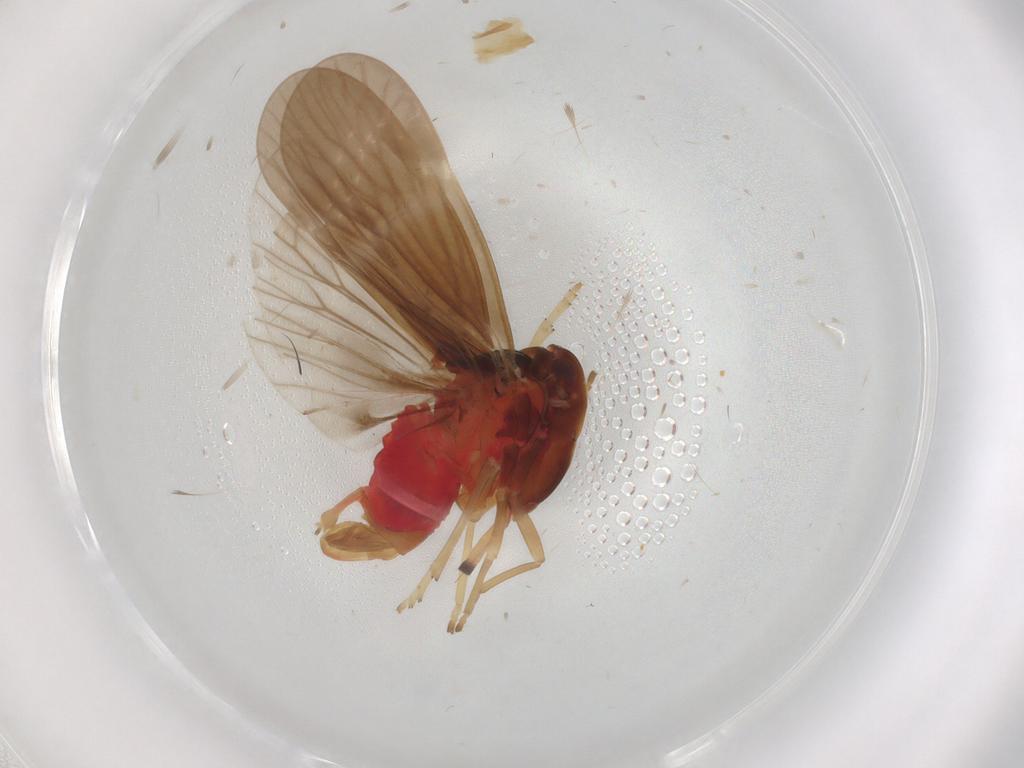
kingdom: Animalia
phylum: Arthropoda
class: Insecta
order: Hemiptera
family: Derbidae
